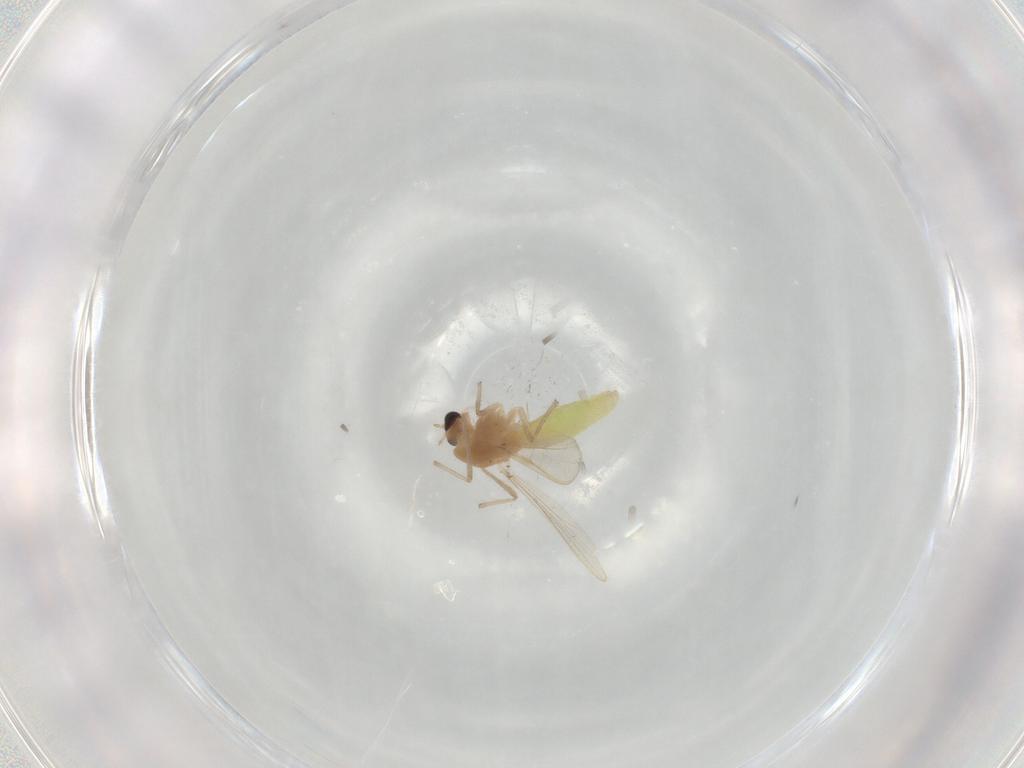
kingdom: Animalia
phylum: Arthropoda
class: Insecta
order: Diptera
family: Chironomidae
